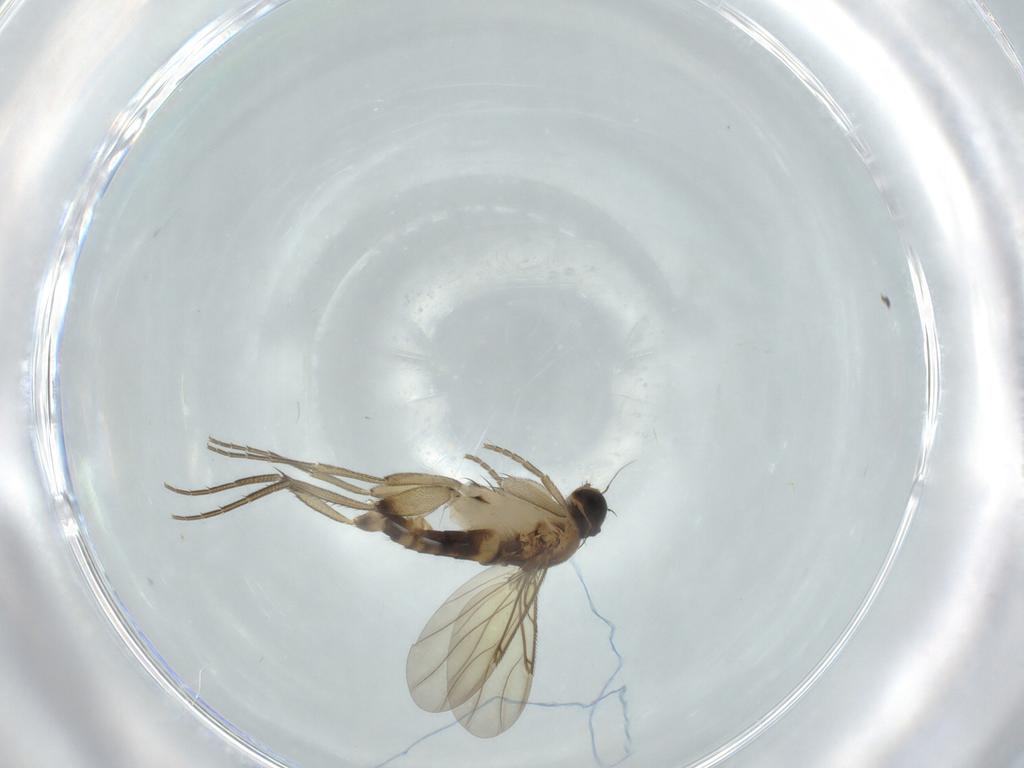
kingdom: Animalia
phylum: Arthropoda
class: Insecta
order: Diptera
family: Phoridae
